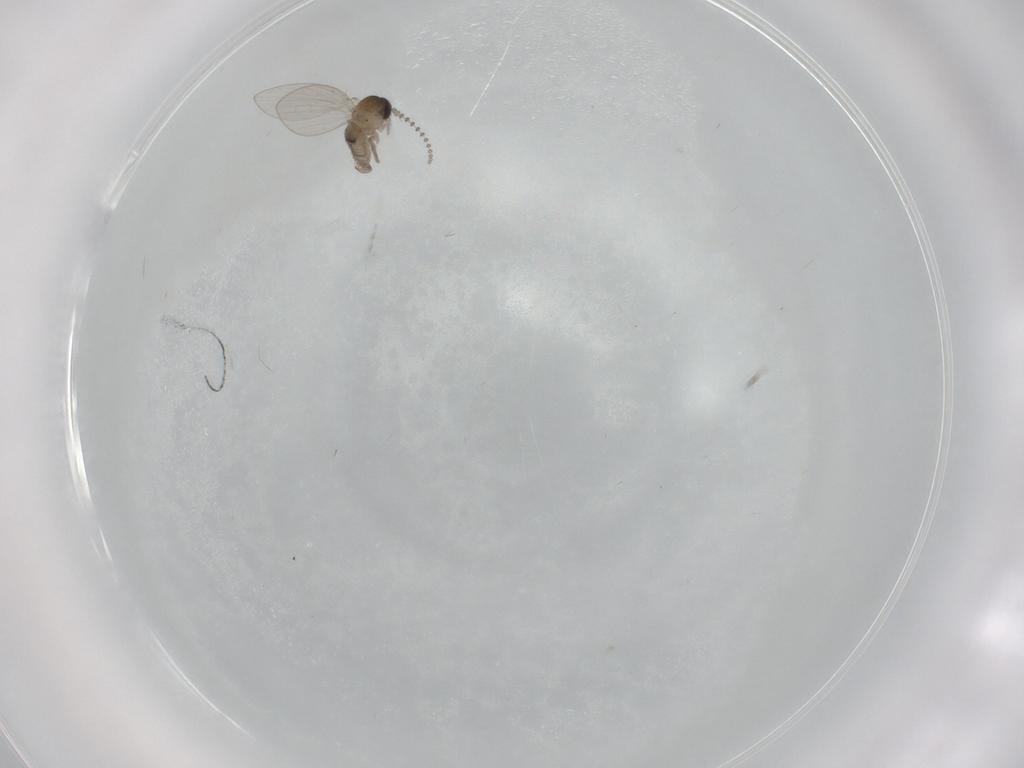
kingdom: Animalia
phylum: Arthropoda
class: Insecta
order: Diptera
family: Psychodidae
